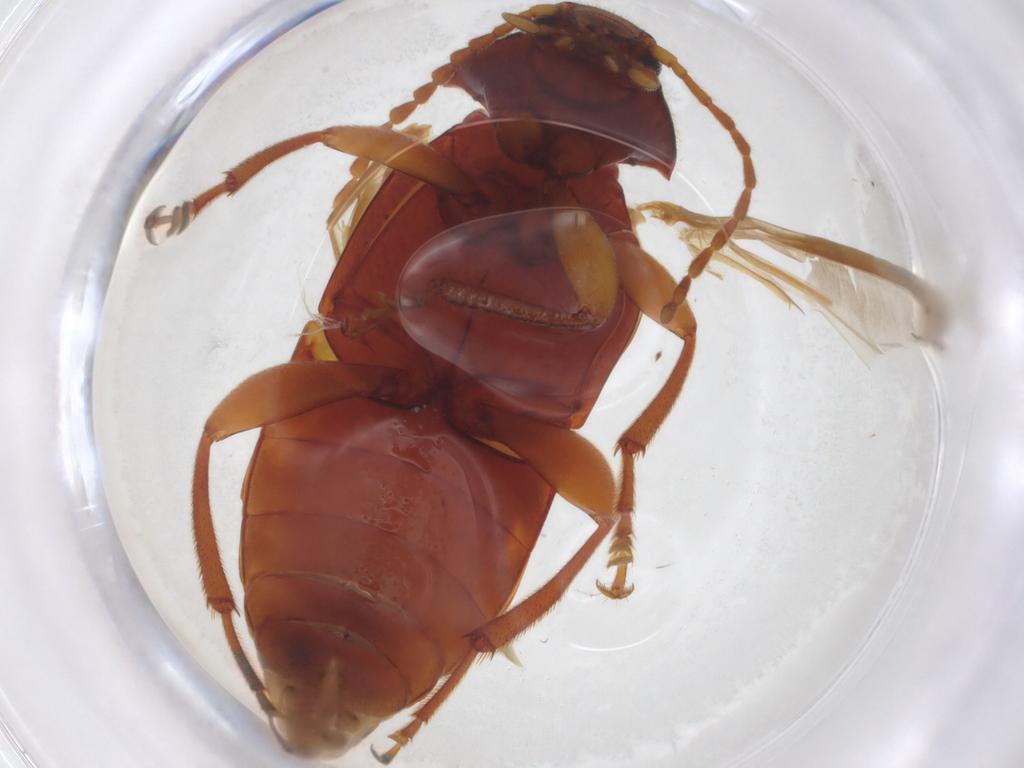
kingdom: Animalia
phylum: Arthropoda
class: Insecta
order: Coleoptera
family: Tenebrionidae
